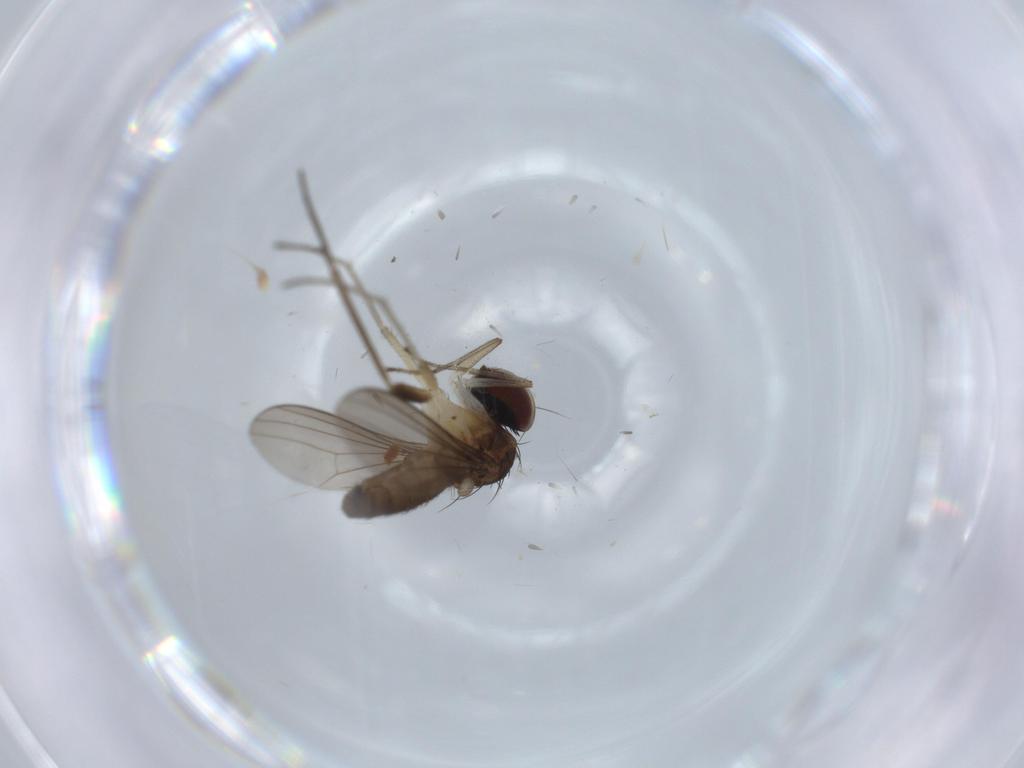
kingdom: Animalia
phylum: Arthropoda
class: Insecta
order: Diptera
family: Dolichopodidae
